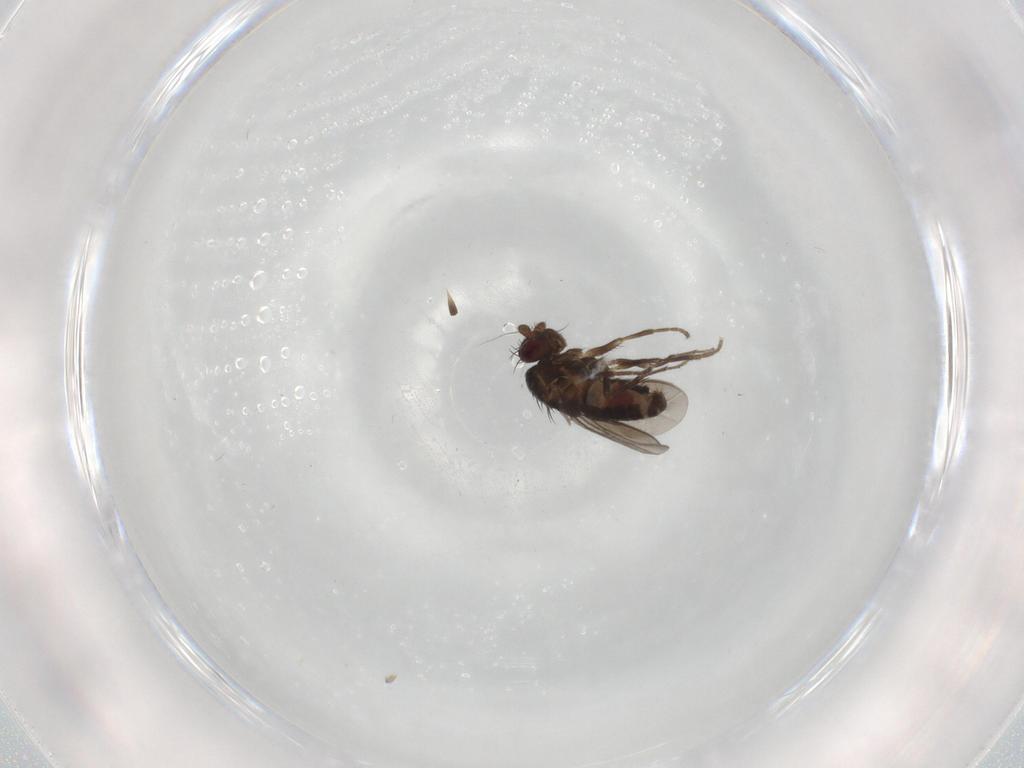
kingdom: Animalia
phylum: Arthropoda
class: Insecta
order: Diptera
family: Sphaeroceridae
